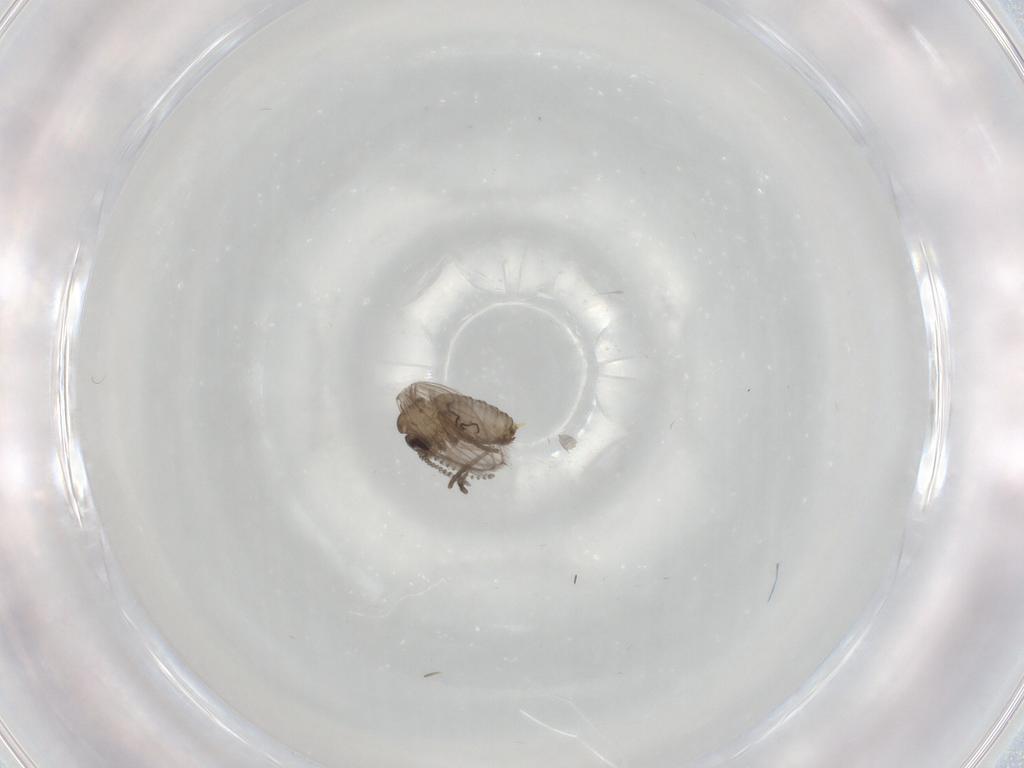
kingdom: Animalia
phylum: Arthropoda
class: Insecta
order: Diptera
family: Psychodidae
